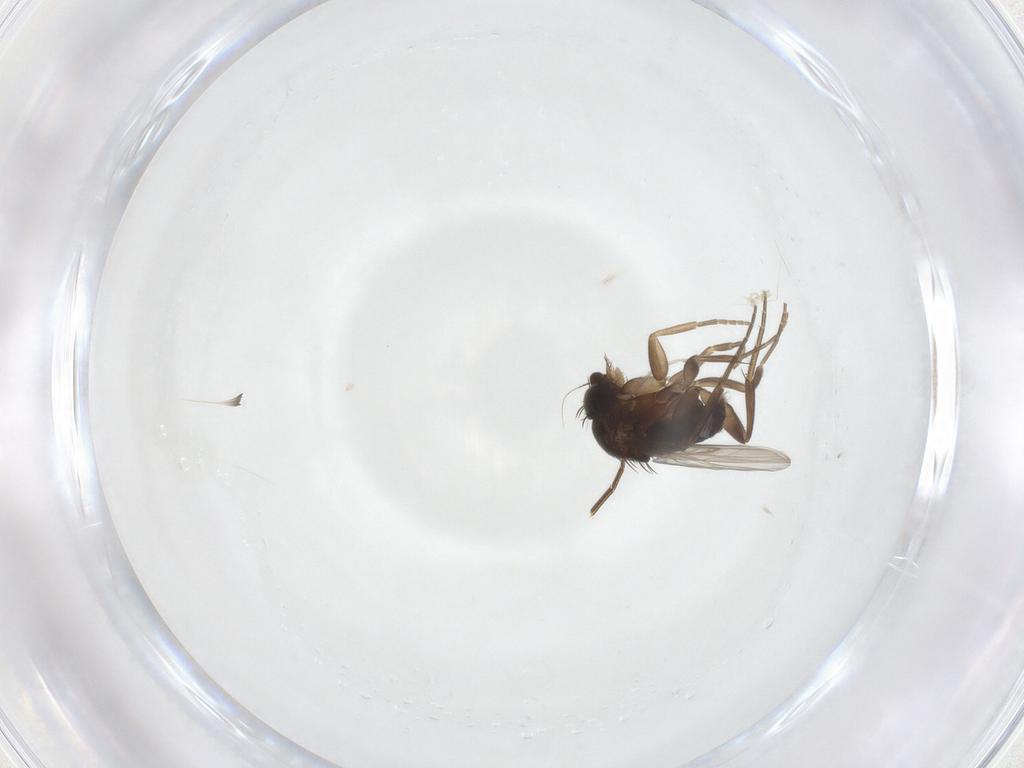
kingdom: Animalia
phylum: Arthropoda
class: Insecta
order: Diptera
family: Phoridae
